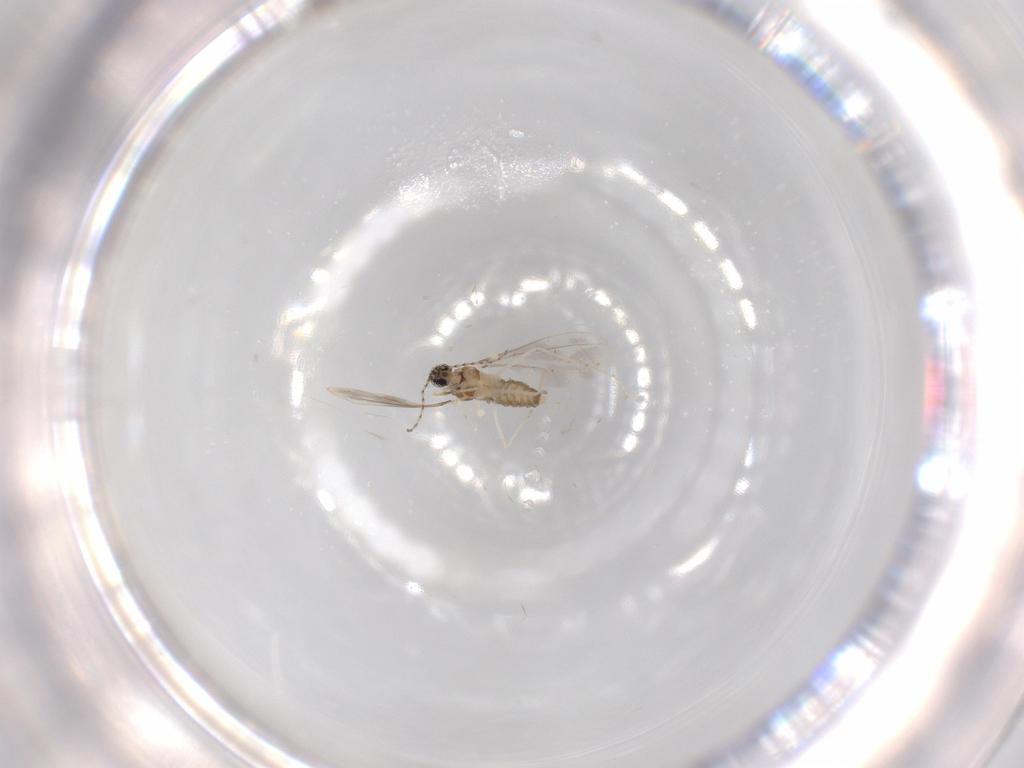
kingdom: Animalia
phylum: Arthropoda
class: Insecta
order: Diptera
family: Cecidomyiidae
